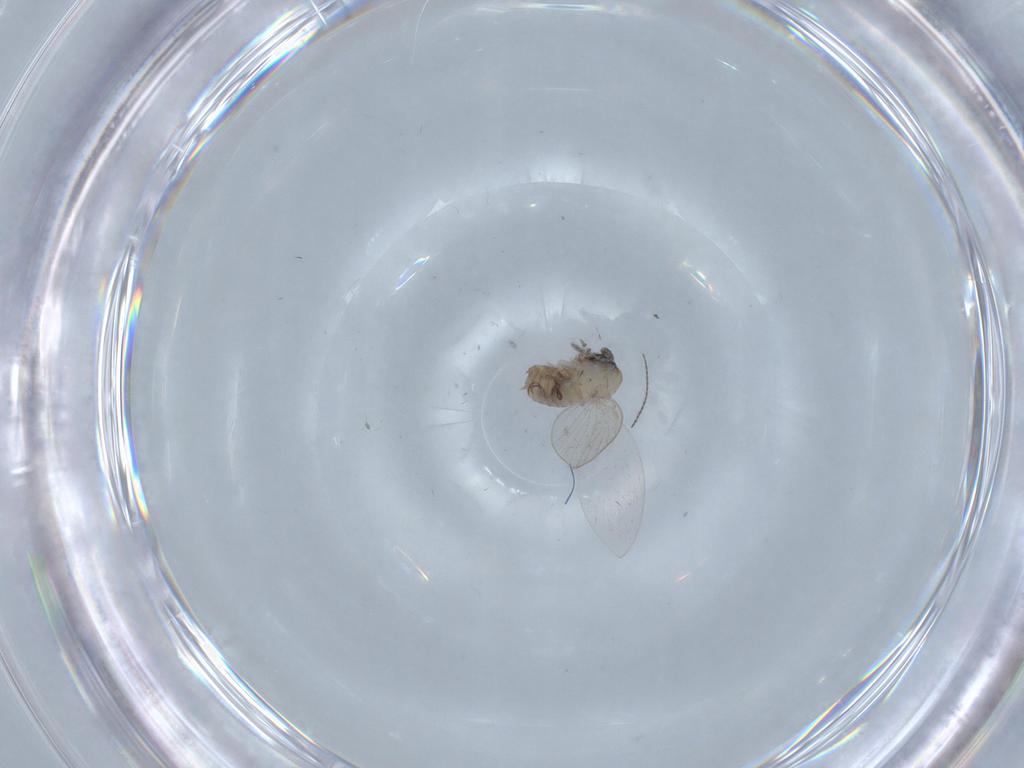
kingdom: Animalia
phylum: Arthropoda
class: Insecta
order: Diptera
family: Psychodidae
